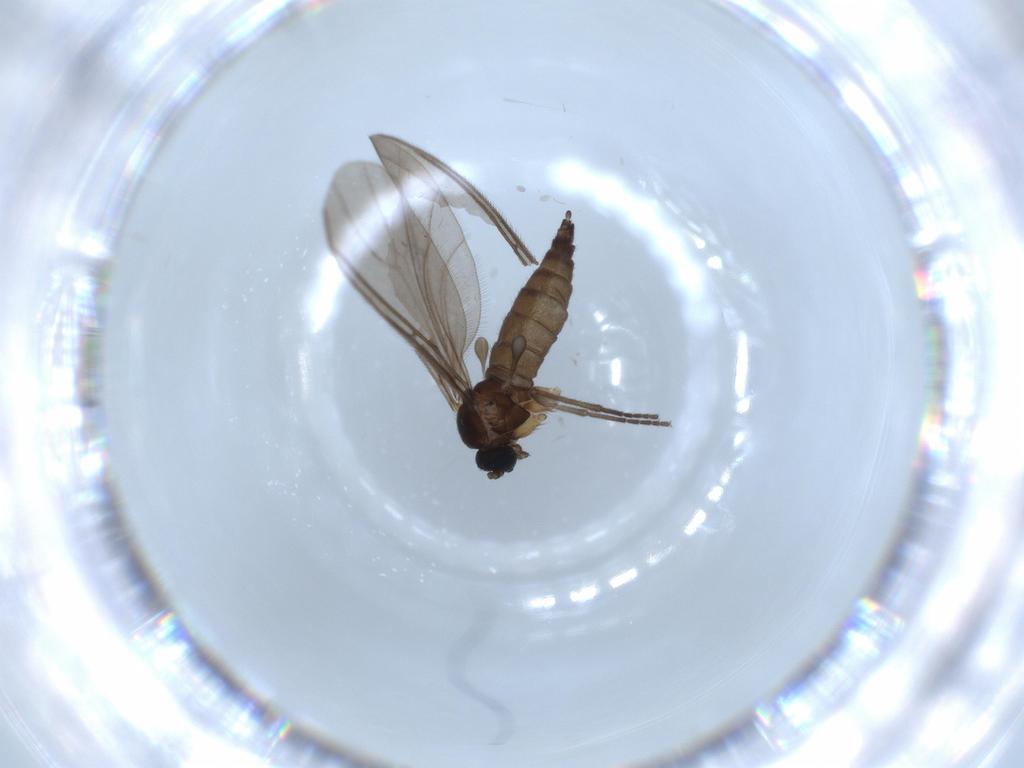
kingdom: Animalia
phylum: Arthropoda
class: Insecta
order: Diptera
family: Sciaridae
